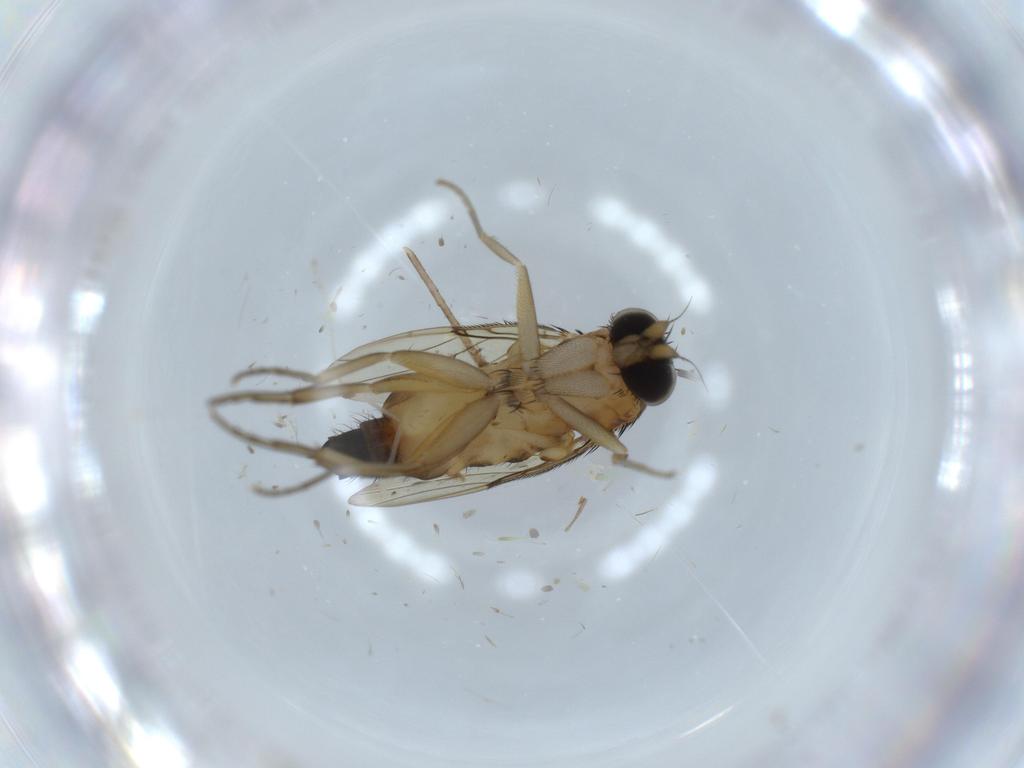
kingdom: Animalia
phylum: Arthropoda
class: Insecta
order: Diptera
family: Phoridae
